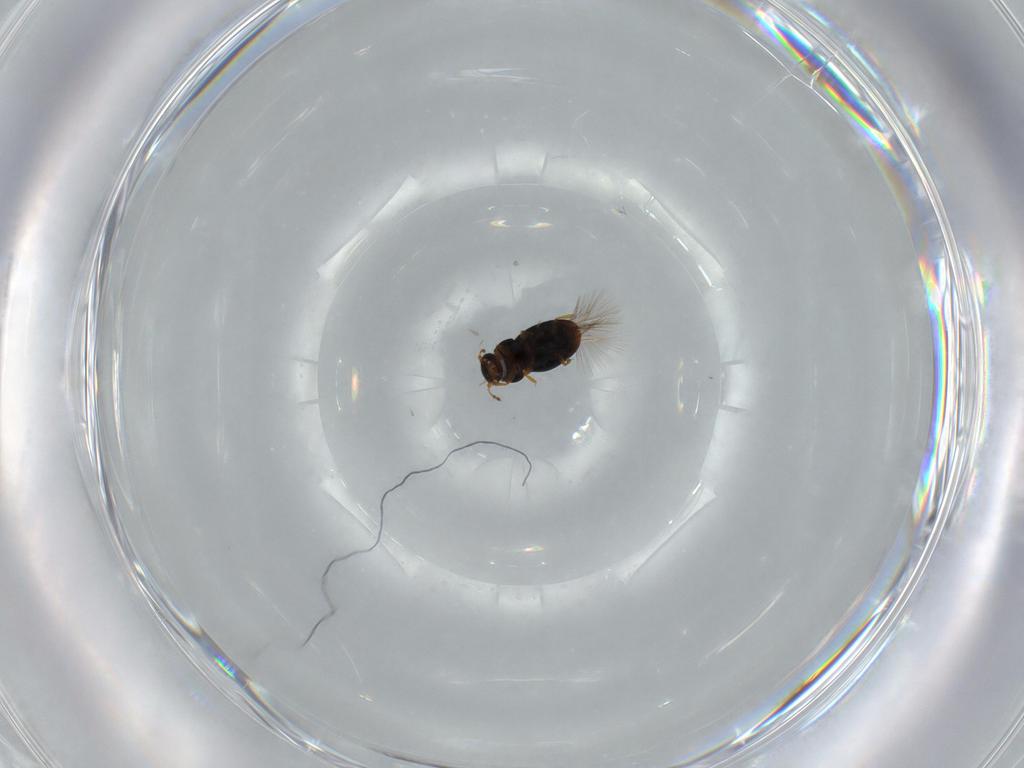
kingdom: Animalia
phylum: Arthropoda
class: Insecta
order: Coleoptera
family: Ptiliidae
